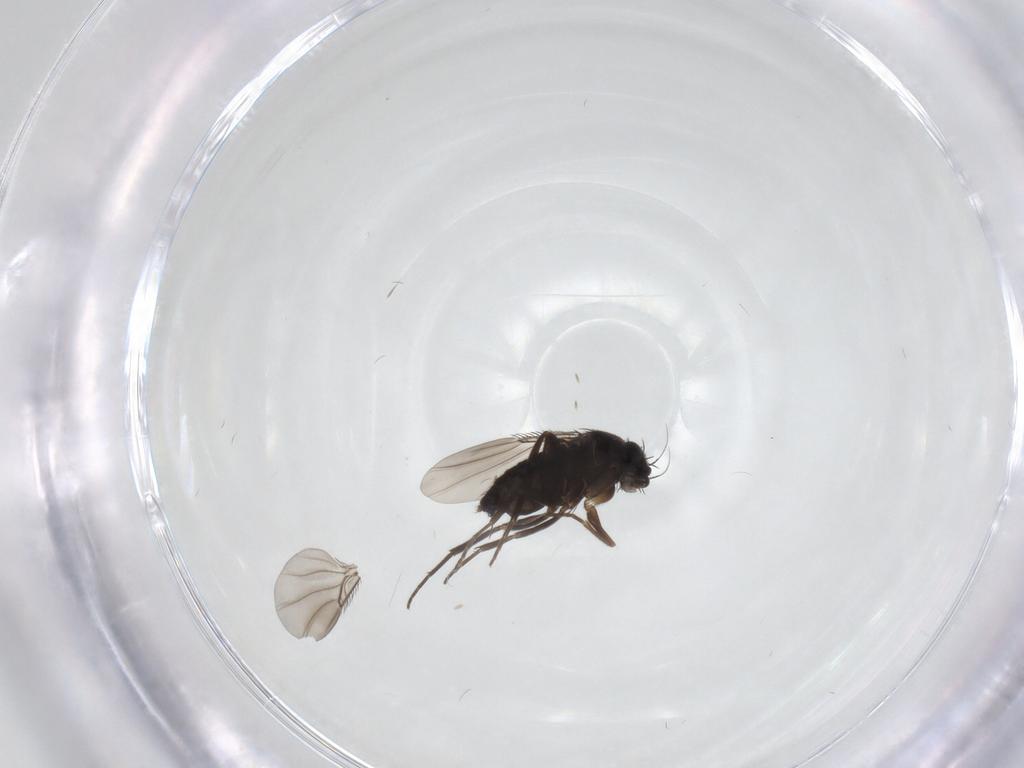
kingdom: Animalia
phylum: Arthropoda
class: Insecta
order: Diptera
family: Phoridae
